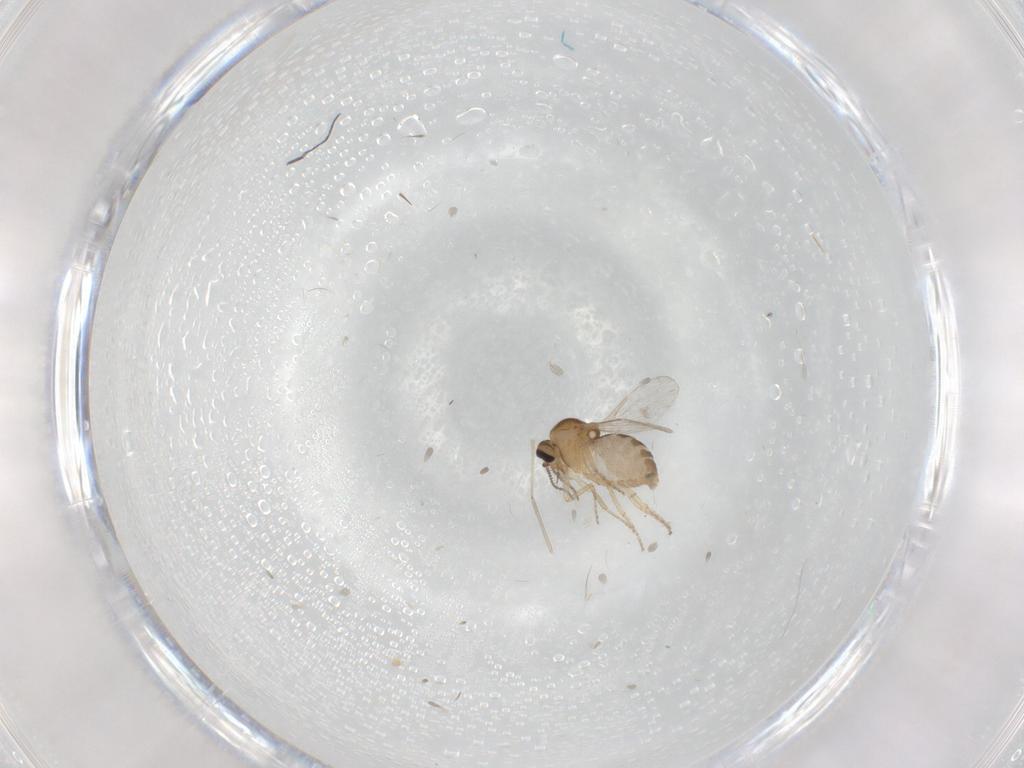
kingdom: Animalia
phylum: Arthropoda
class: Insecta
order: Diptera
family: Ceratopogonidae
